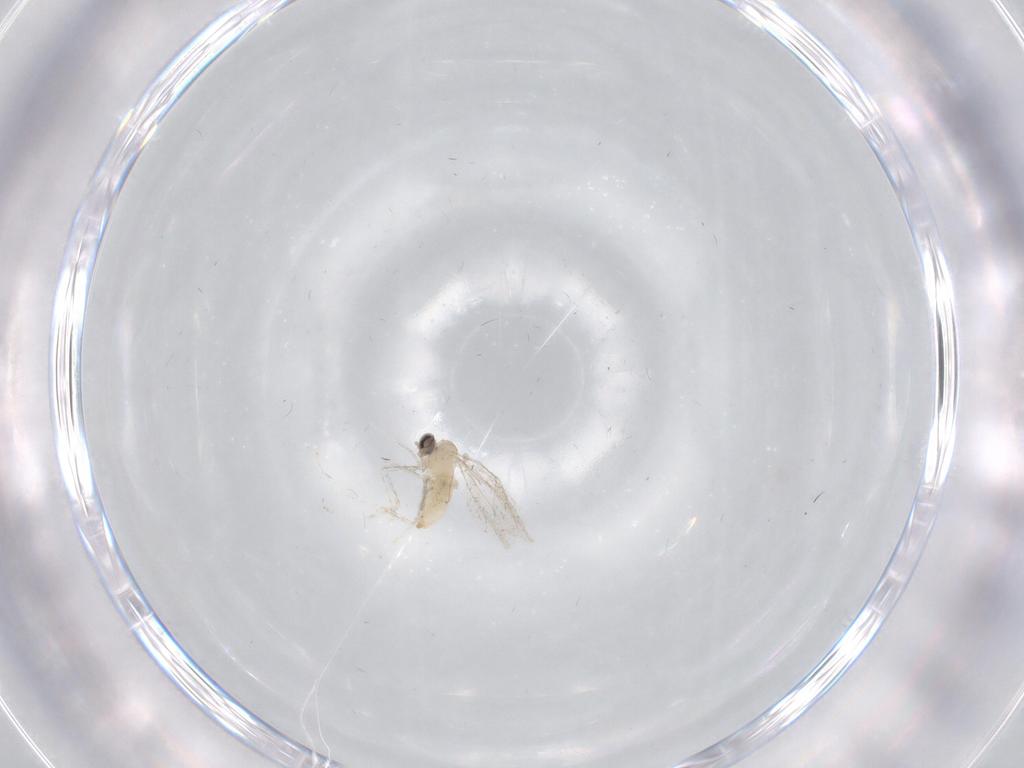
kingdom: Animalia
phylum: Arthropoda
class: Insecta
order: Diptera
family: Cecidomyiidae
